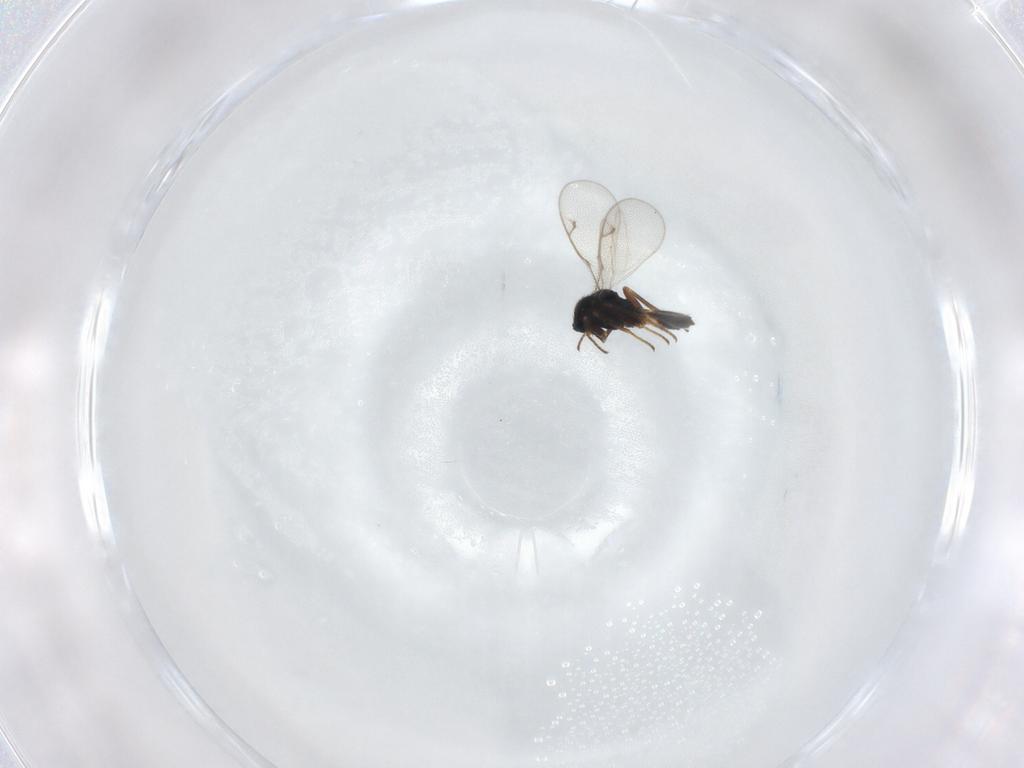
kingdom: Animalia
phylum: Arthropoda
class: Insecta
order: Hymenoptera
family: Pteromalidae
